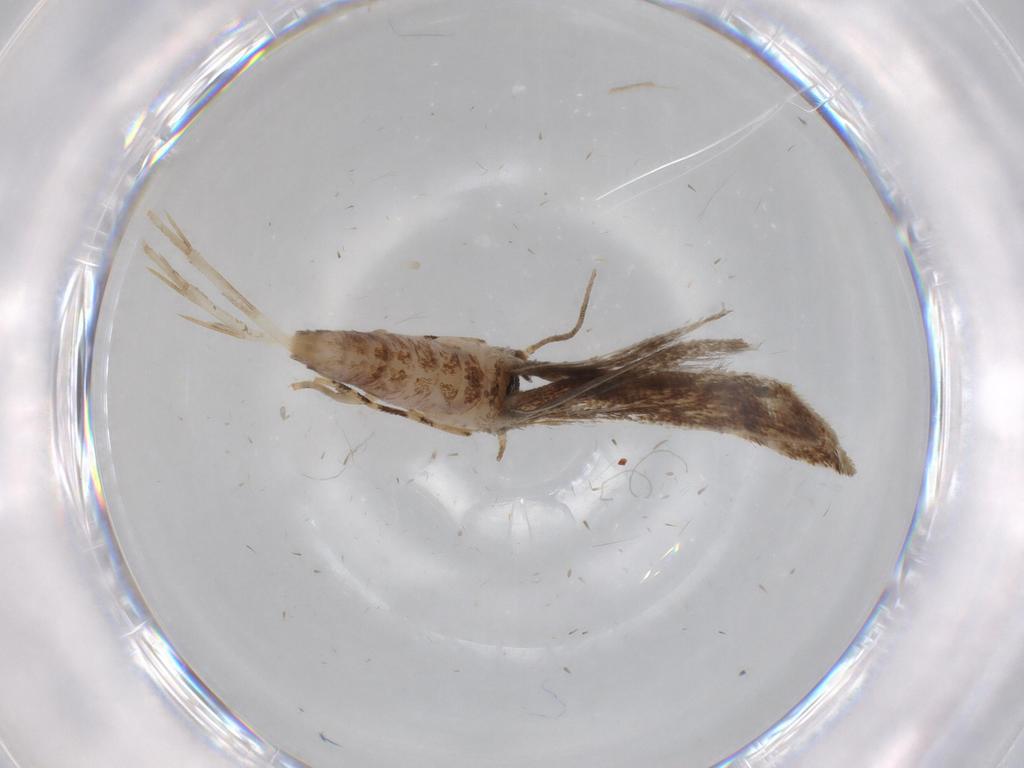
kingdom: Animalia
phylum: Arthropoda
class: Insecta
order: Lepidoptera
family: Momphidae
